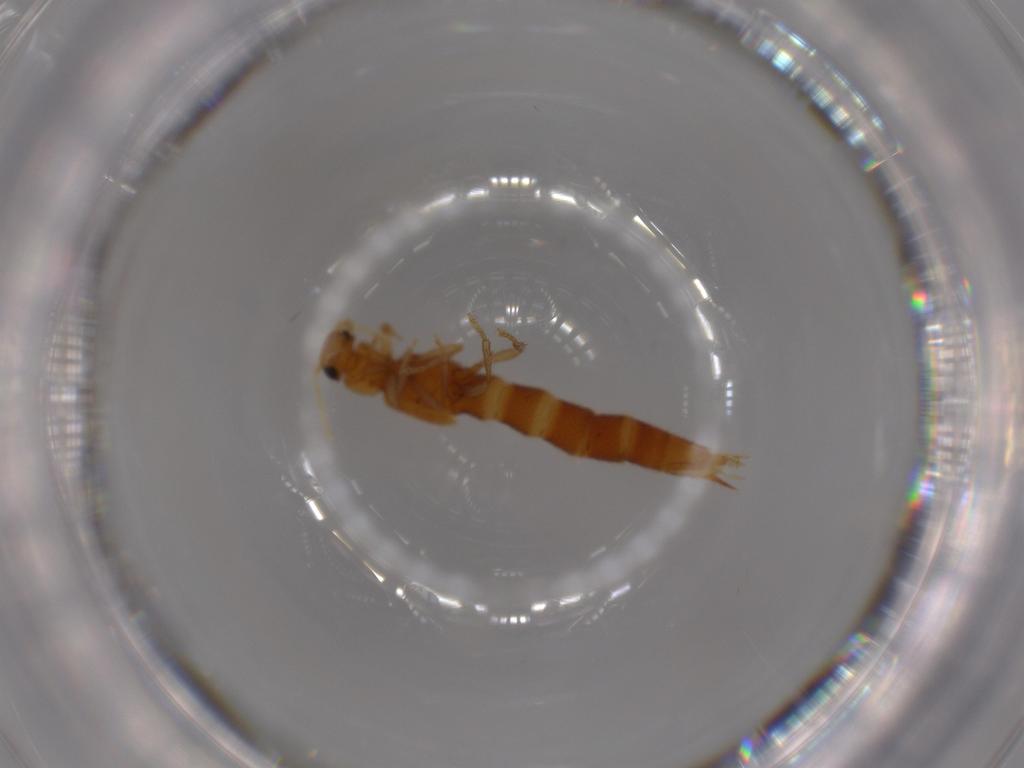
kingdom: Animalia
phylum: Arthropoda
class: Insecta
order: Coleoptera
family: Staphylinidae
